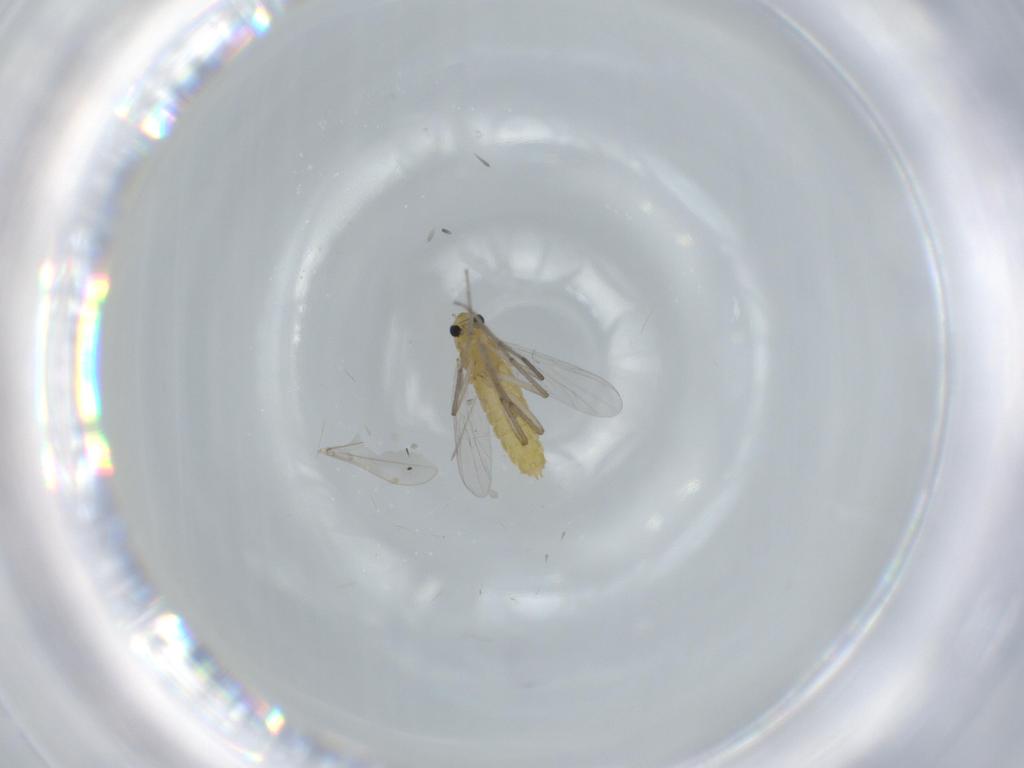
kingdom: Animalia
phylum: Arthropoda
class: Insecta
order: Diptera
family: Chironomidae
